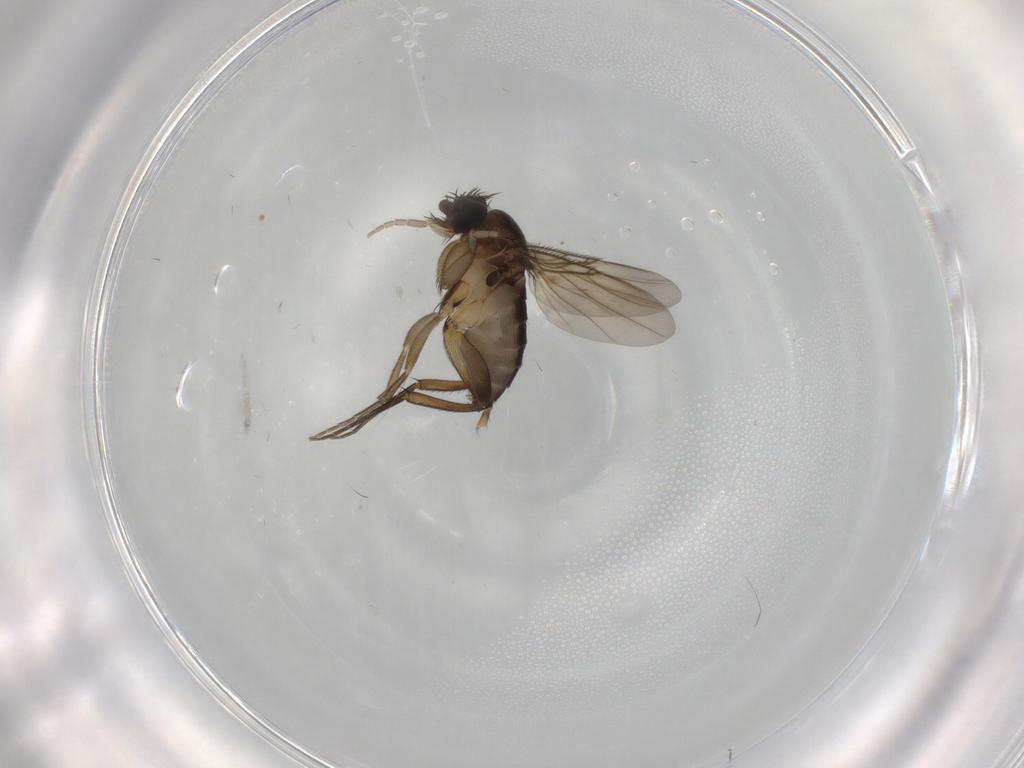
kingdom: Animalia
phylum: Arthropoda
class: Insecta
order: Diptera
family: Phoridae
